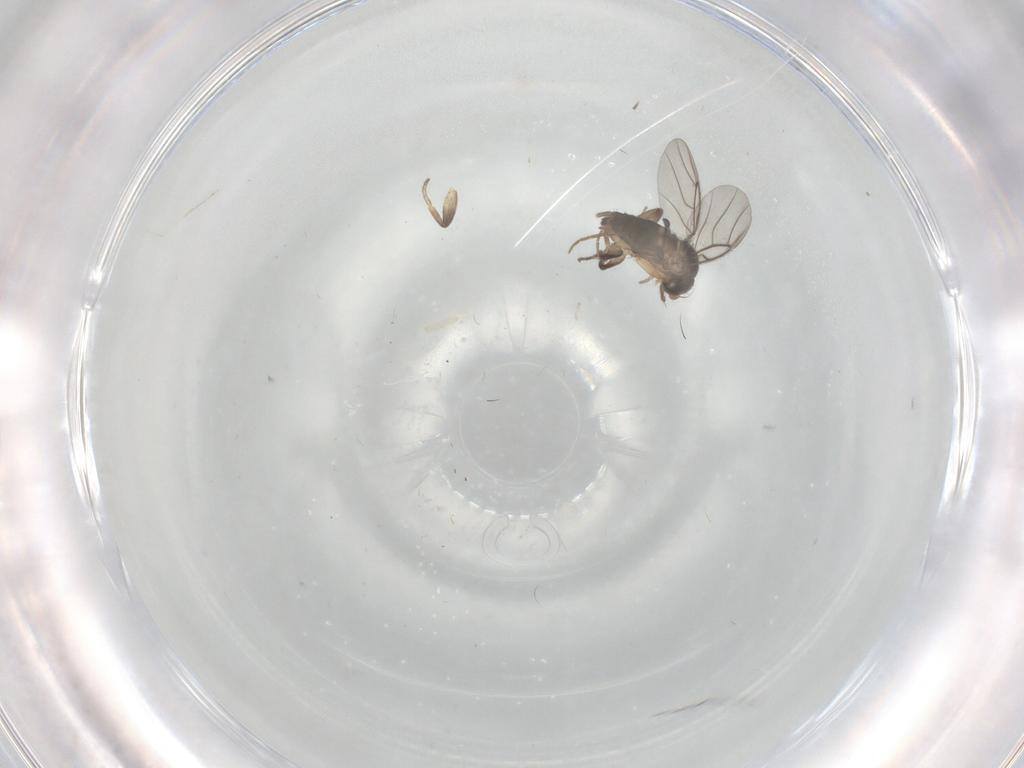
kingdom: Animalia
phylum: Arthropoda
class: Insecta
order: Diptera
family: Cecidomyiidae
